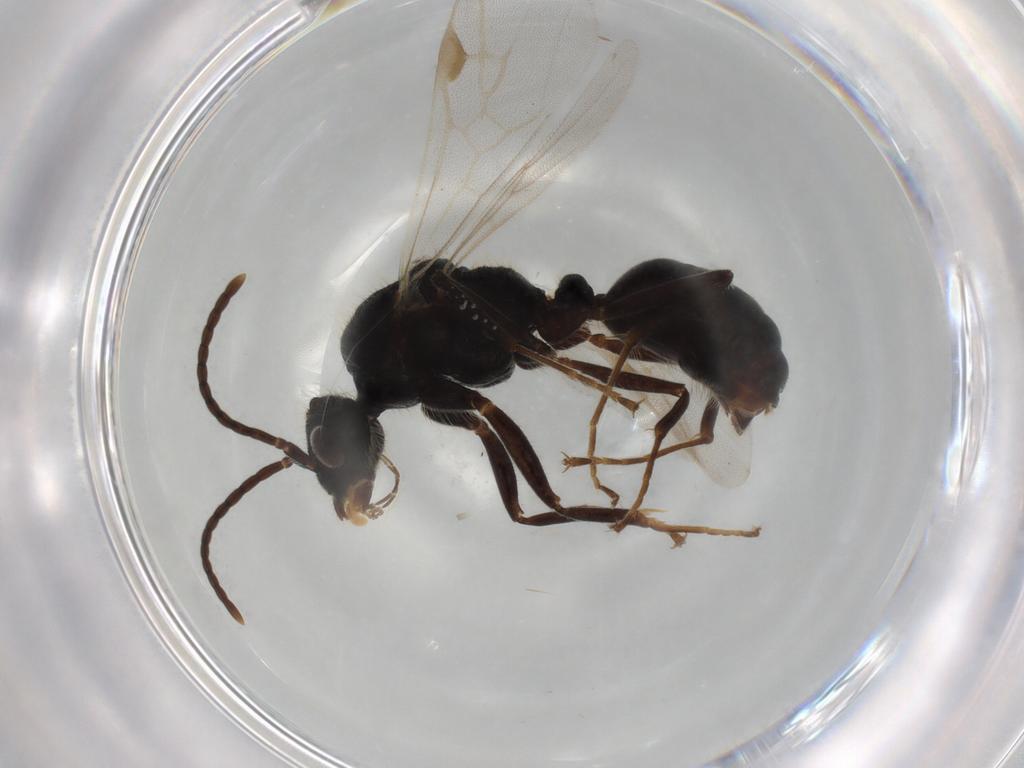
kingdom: Animalia
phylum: Arthropoda
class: Insecta
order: Hymenoptera
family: Formicidae
